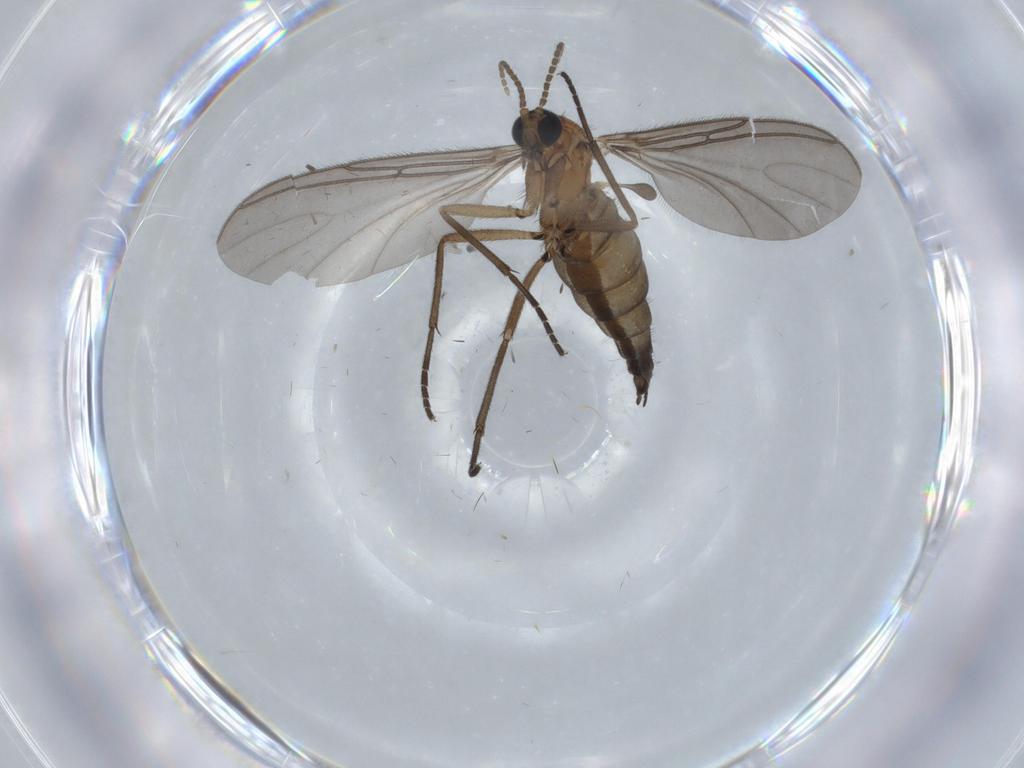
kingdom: Animalia
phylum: Arthropoda
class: Insecta
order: Diptera
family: Sciaridae
